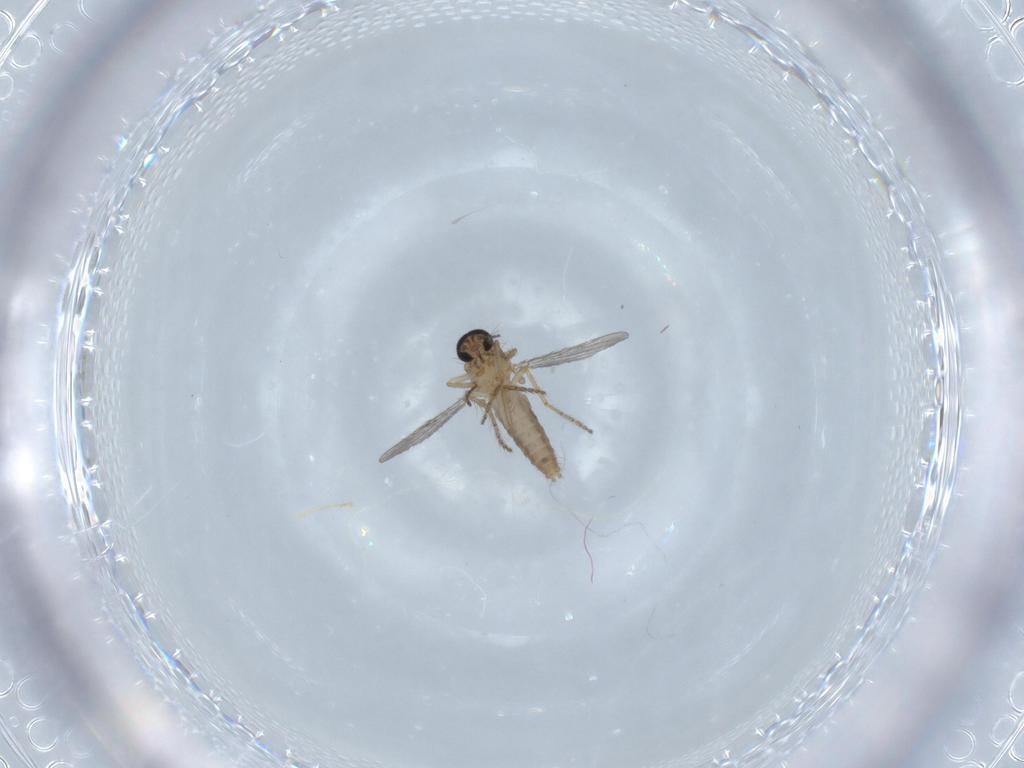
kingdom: Animalia
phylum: Arthropoda
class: Insecta
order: Diptera
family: Ceratopogonidae
